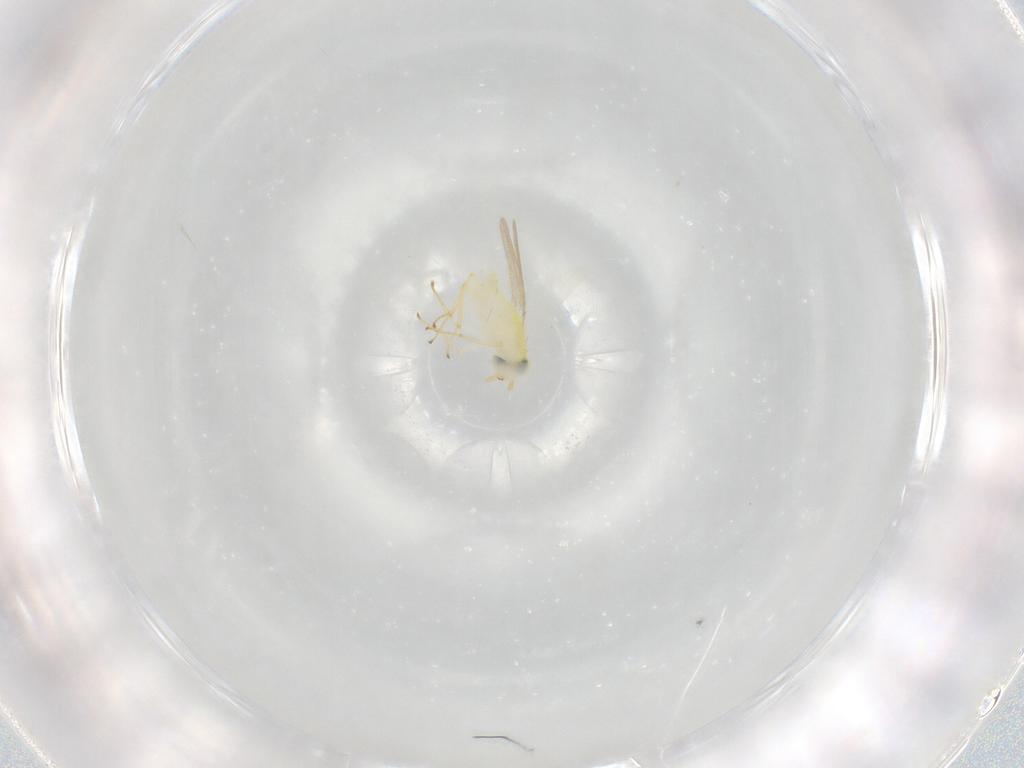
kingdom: Animalia
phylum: Arthropoda
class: Insecta
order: Hymenoptera
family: Aphelinidae
